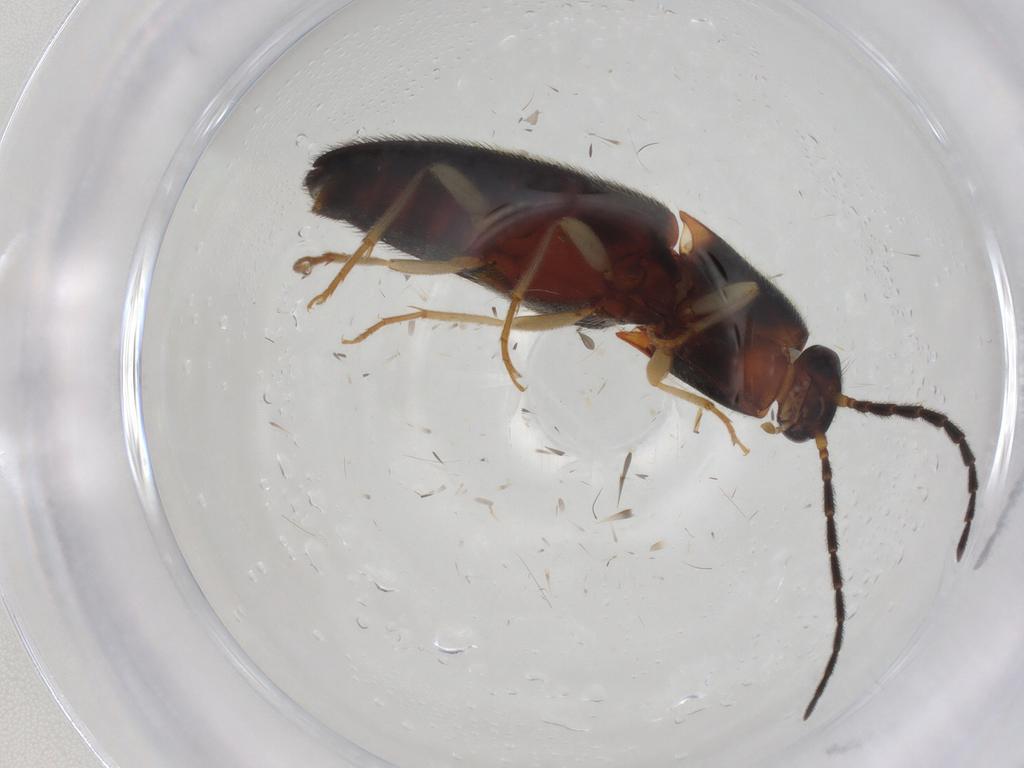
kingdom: Animalia
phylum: Arthropoda
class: Insecta
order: Coleoptera
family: Elateridae
